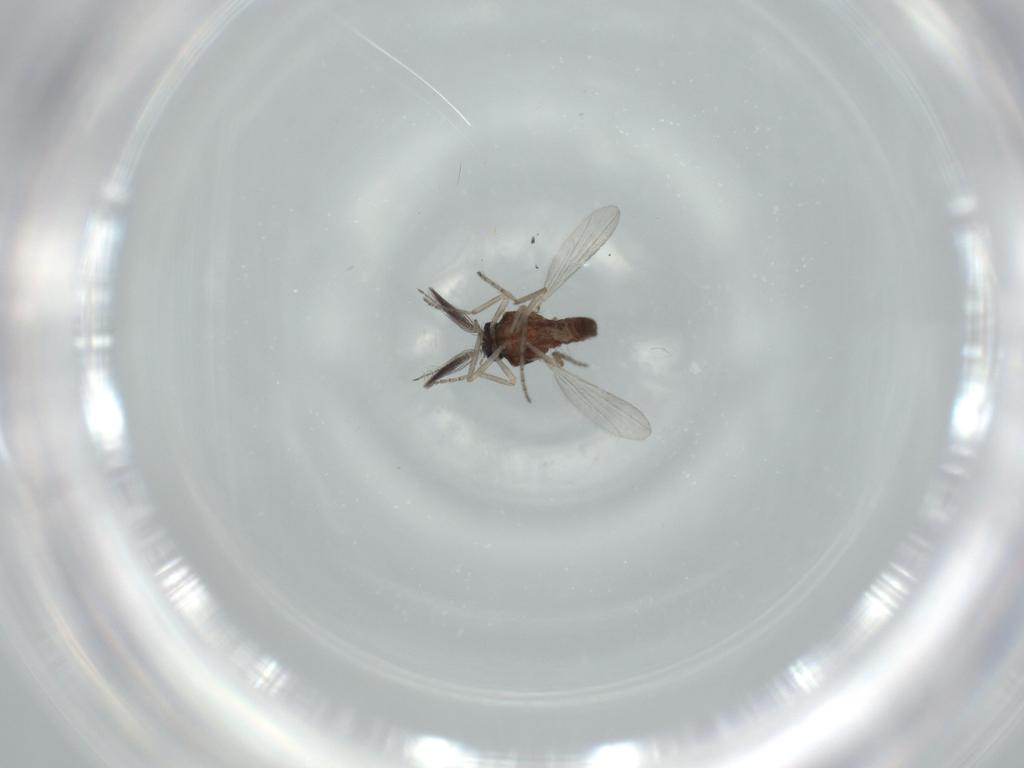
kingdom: Animalia
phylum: Arthropoda
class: Insecta
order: Diptera
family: Ceratopogonidae
